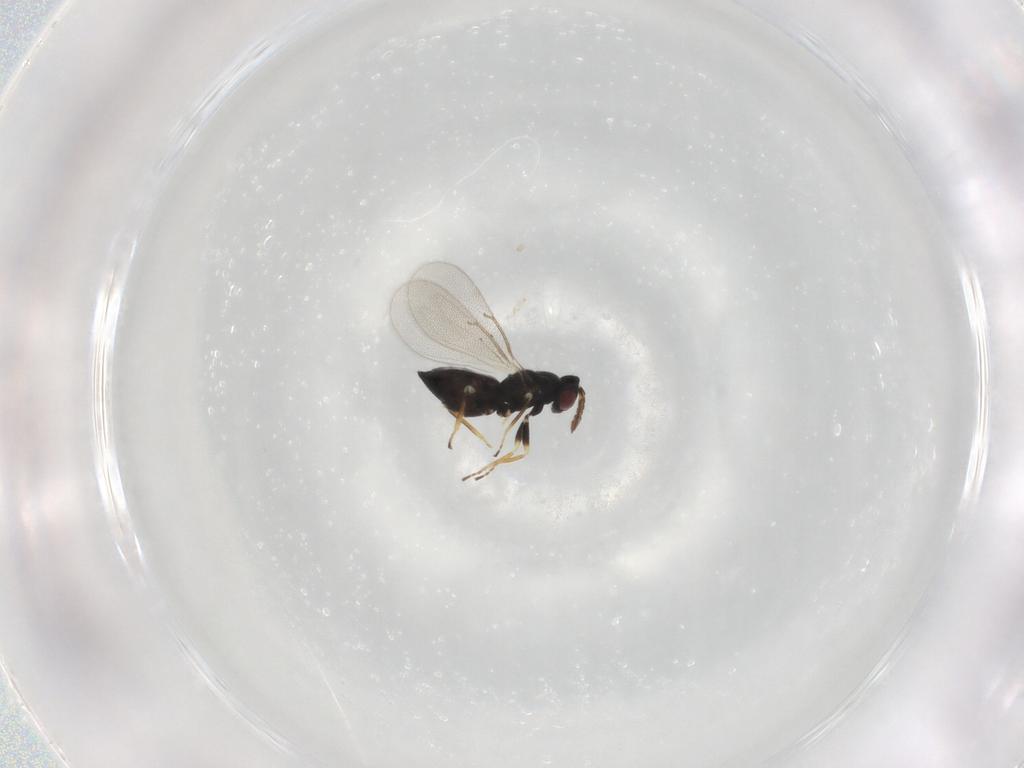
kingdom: Animalia
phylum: Arthropoda
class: Insecta
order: Hymenoptera
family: Eulophidae
